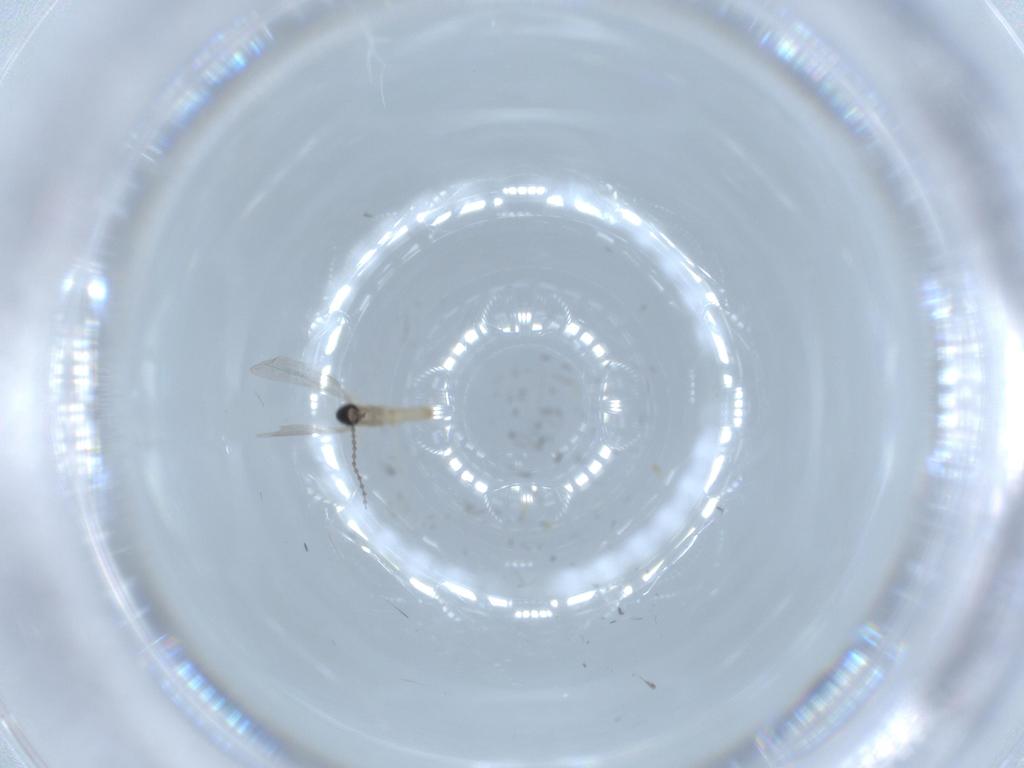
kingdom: Animalia
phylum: Arthropoda
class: Insecta
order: Diptera
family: Cecidomyiidae
